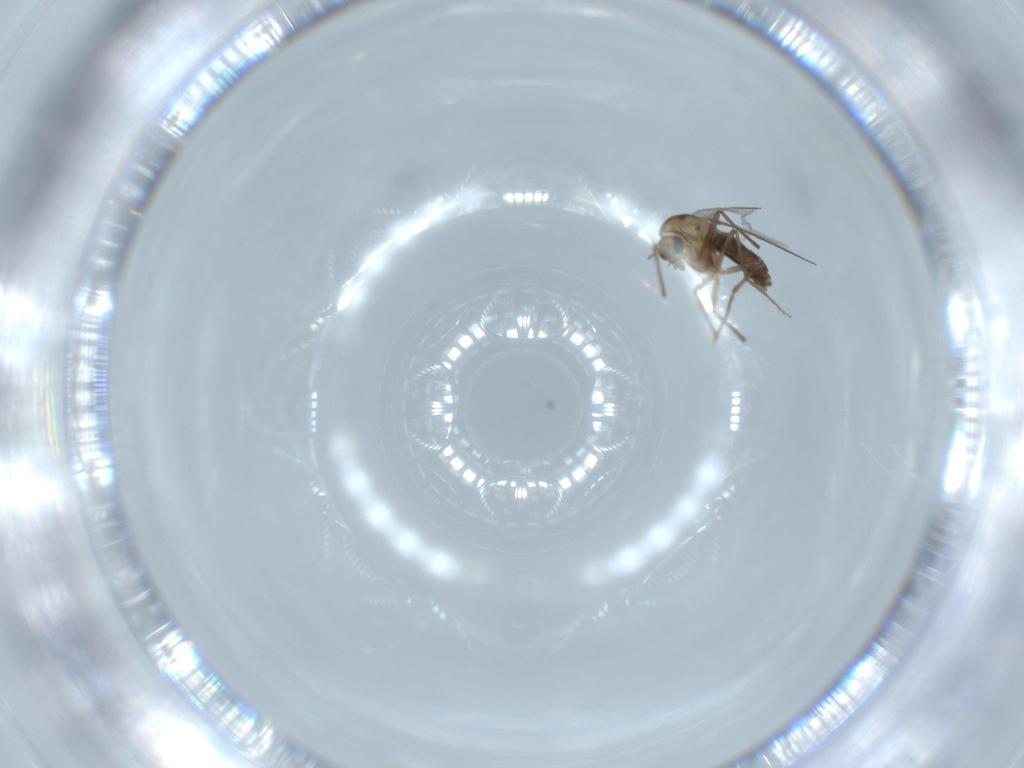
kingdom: Animalia
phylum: Arthropoda
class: Insecta
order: Diptera
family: Chironomidae
